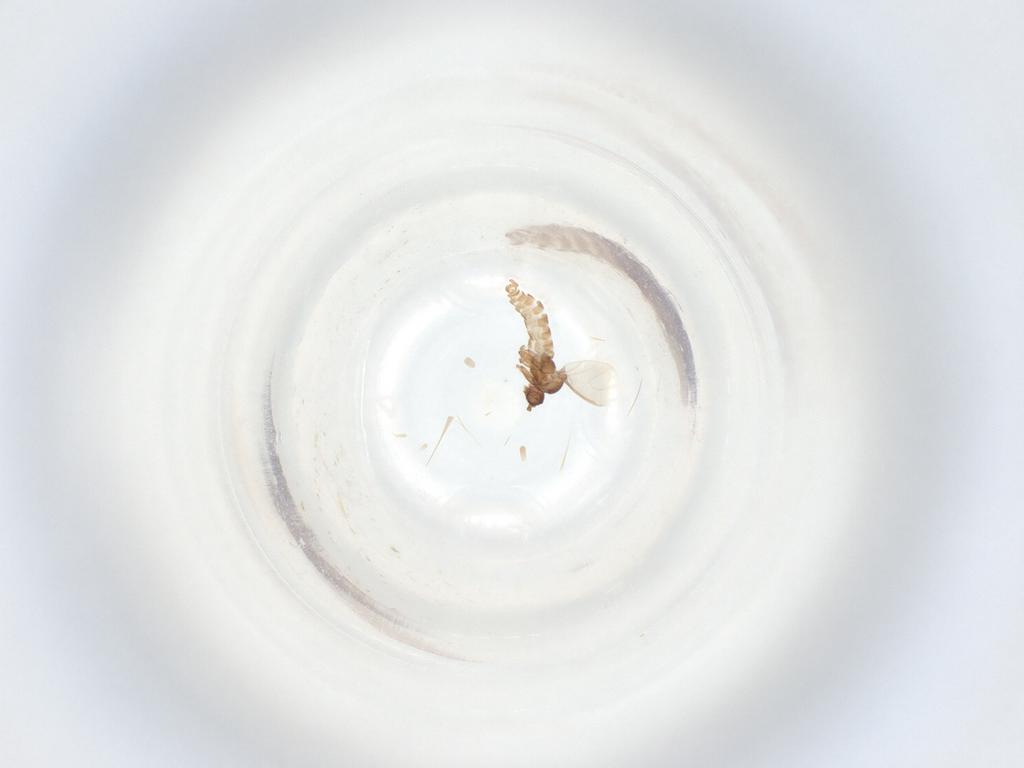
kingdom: Animalia
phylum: Arthropoda
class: Insecta
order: Diptera
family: Sciaridae
